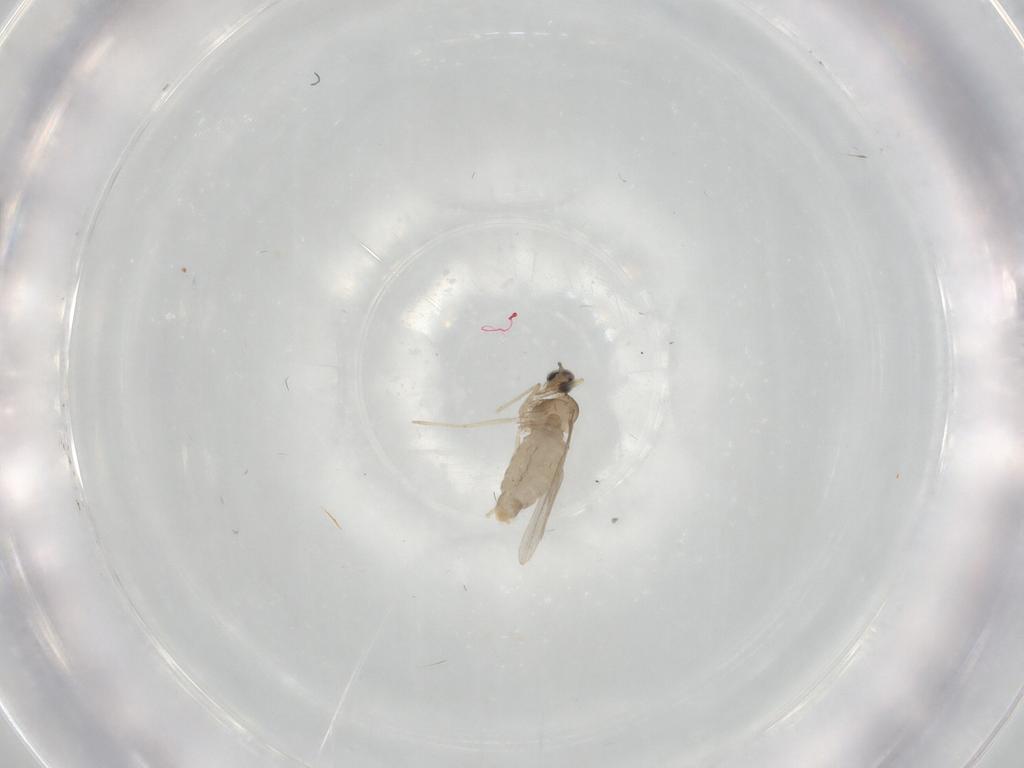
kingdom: Animalia
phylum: Arthropoda
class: Insecta
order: Diptera
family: Cecidomyiidae
